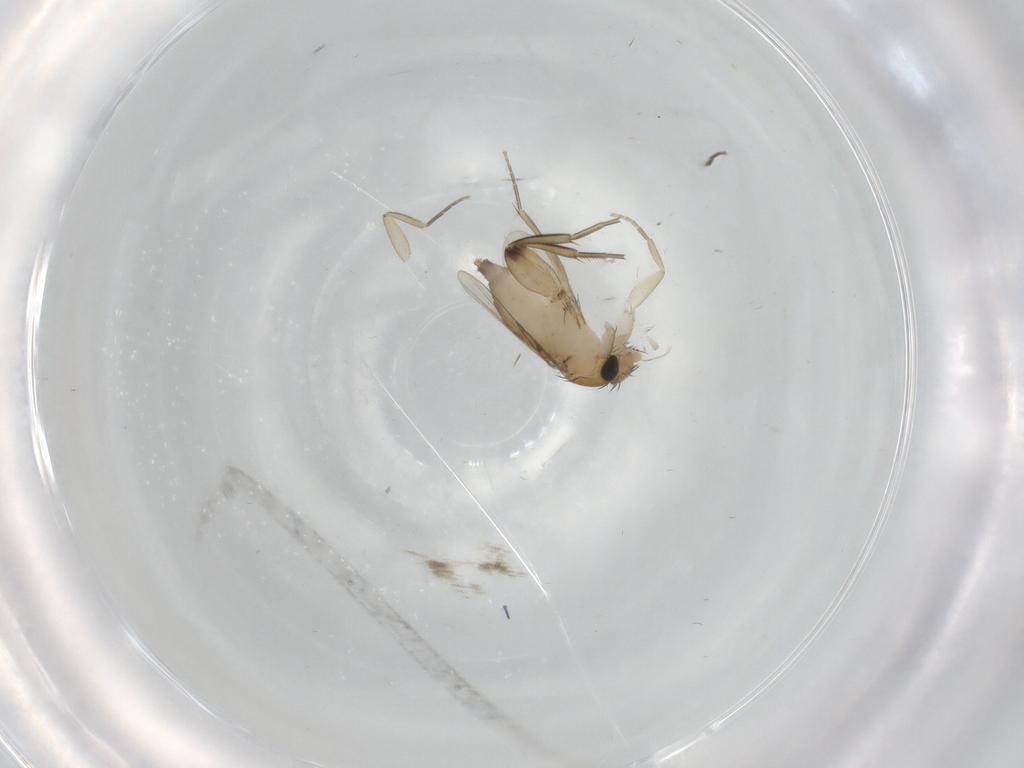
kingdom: Animalia
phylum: Arthropoda
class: Insecta
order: Diptera
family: Phoridae
